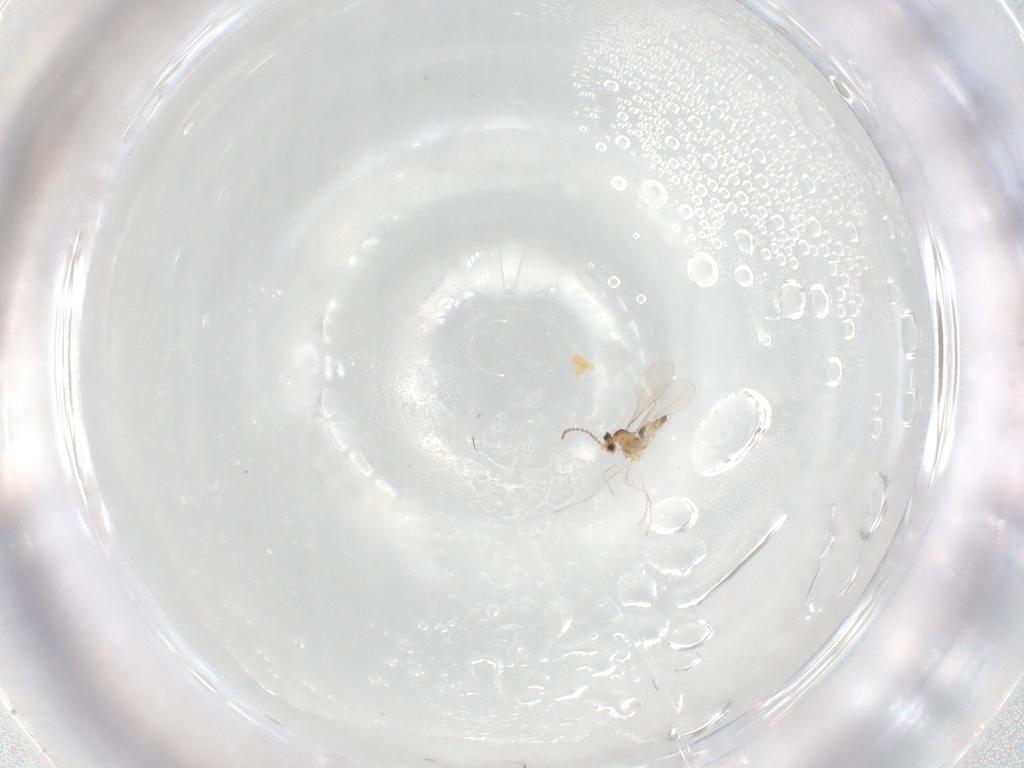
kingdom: Animalia
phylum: Arthropoda
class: Insecta
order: Diptera
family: Cecidomyiidae
